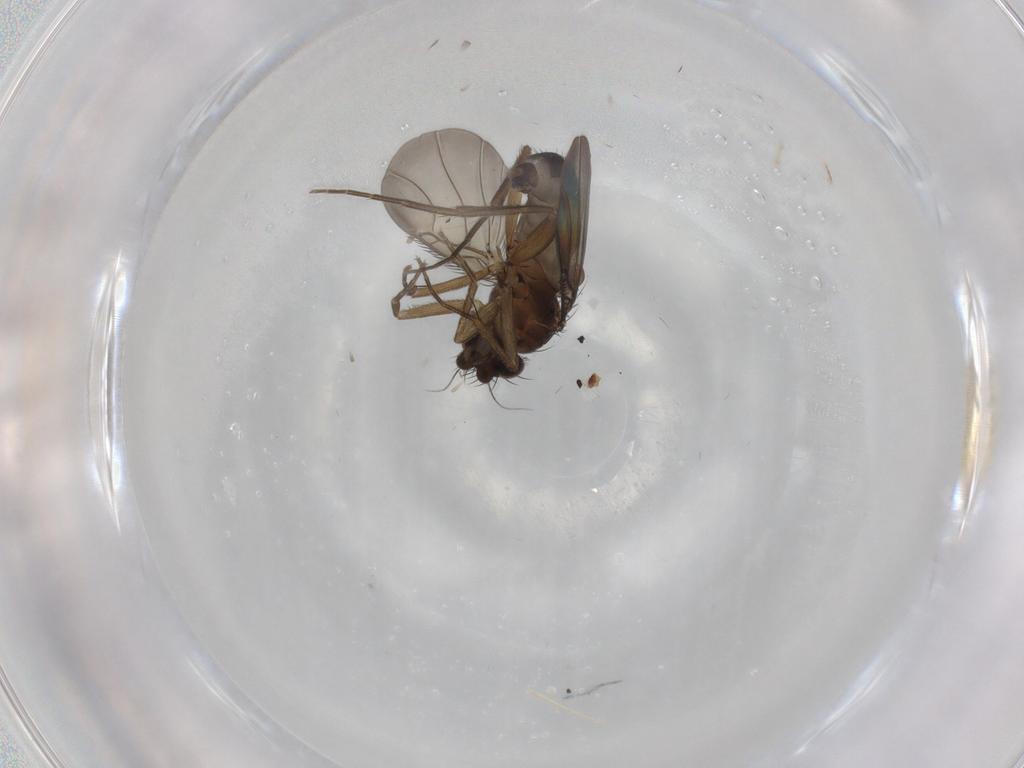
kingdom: Animalia
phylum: Arthropoda
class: Insecta
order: Diptera
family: Phoridae
